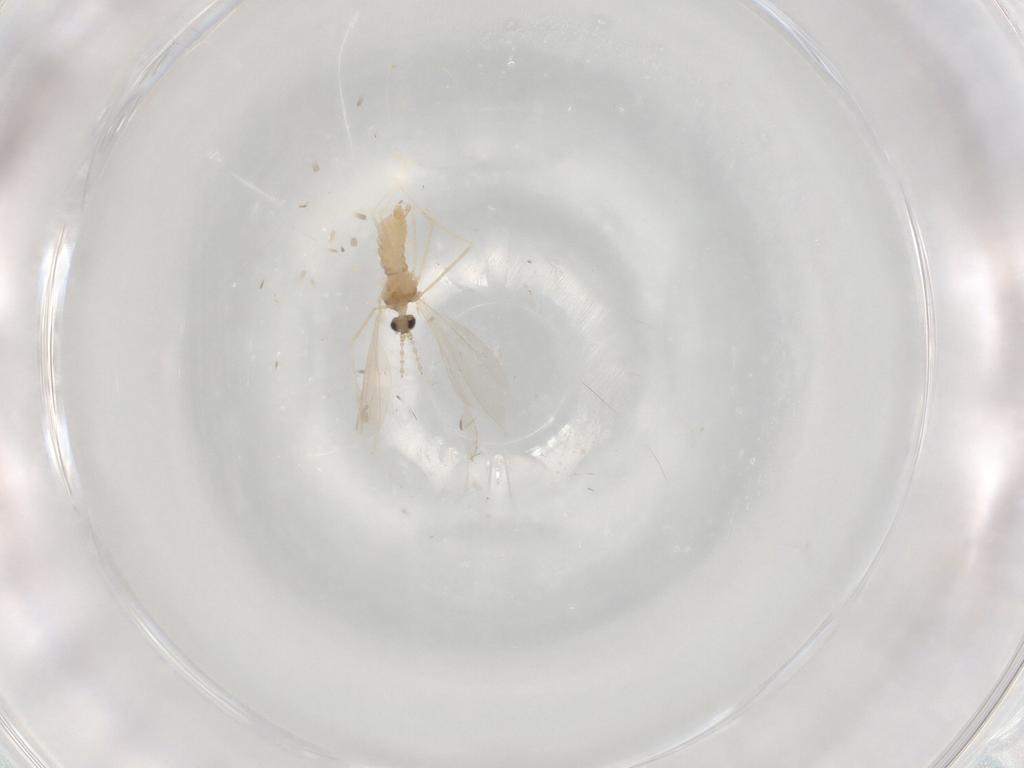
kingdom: Animalia
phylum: Arthropoda
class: Insecta
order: Diptera
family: Cecidomyiidae
